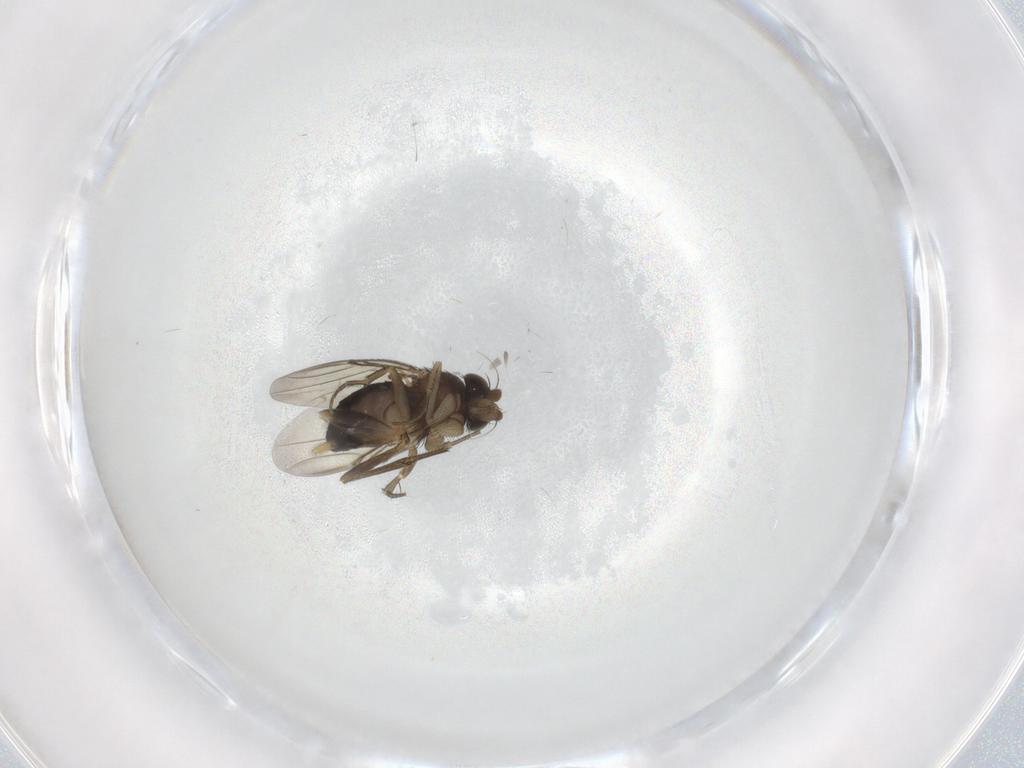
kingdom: Animalia
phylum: Arthropoda
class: Insecta
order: Diptera
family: Phoridae
